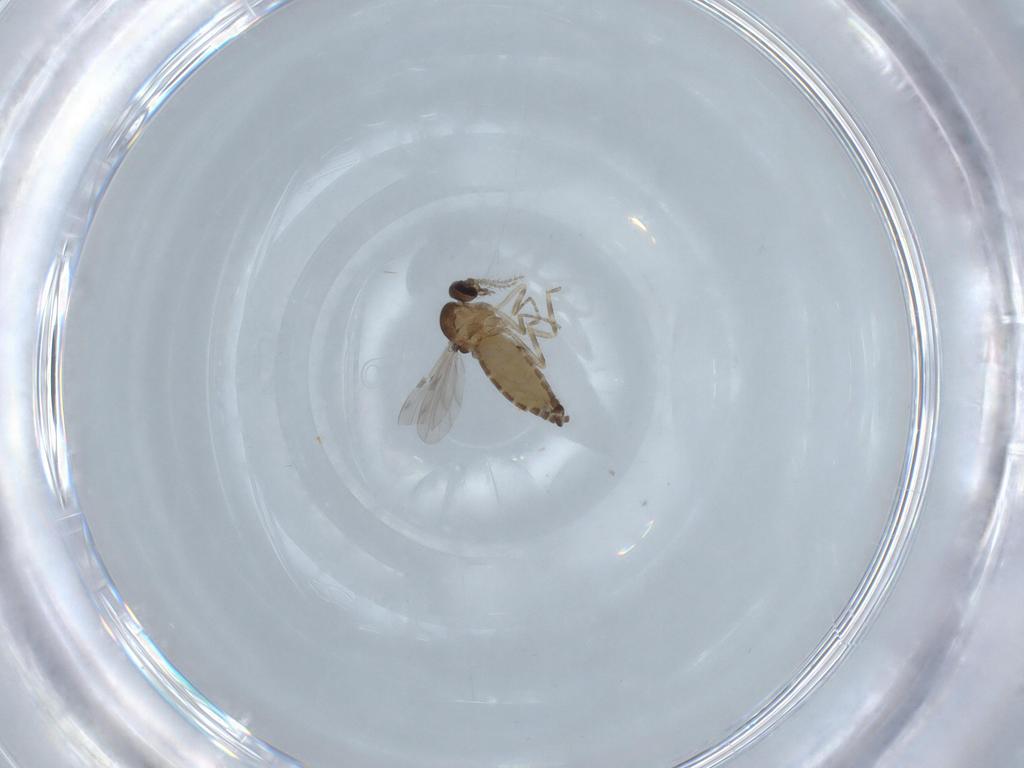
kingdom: Animalia
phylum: Arthropoda
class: Insecta
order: Diptera
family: Ceratopogonidae
